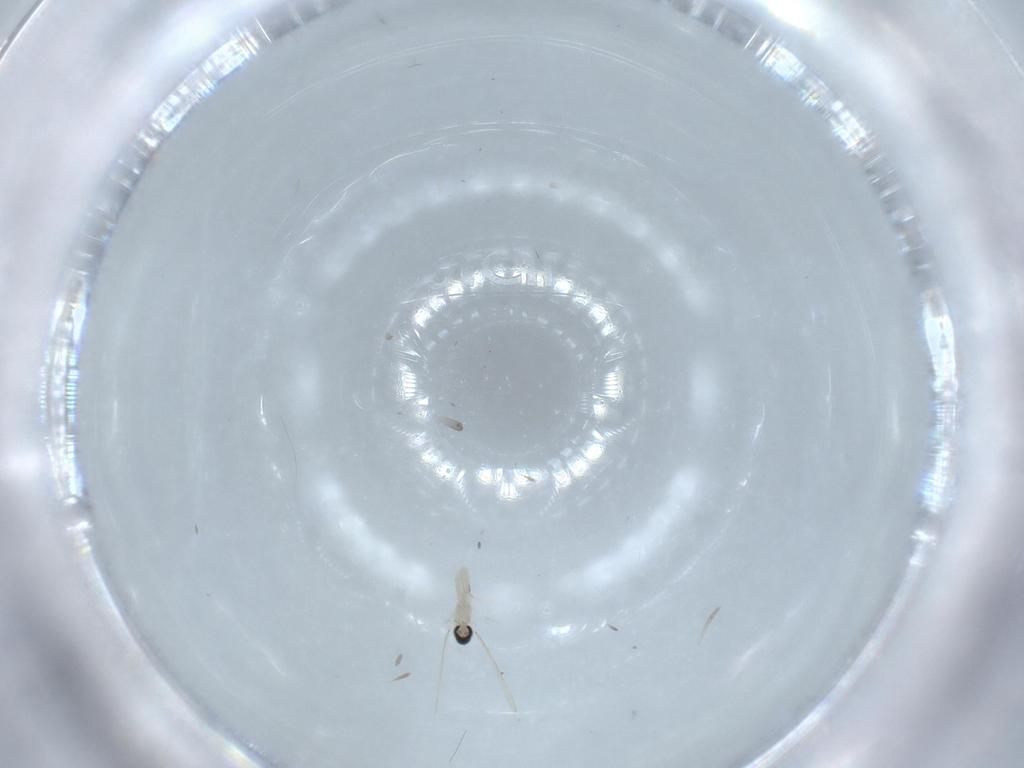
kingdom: Animalia
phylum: Arthropoda
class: Insecta
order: Diptera
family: Cecidomyiidae
